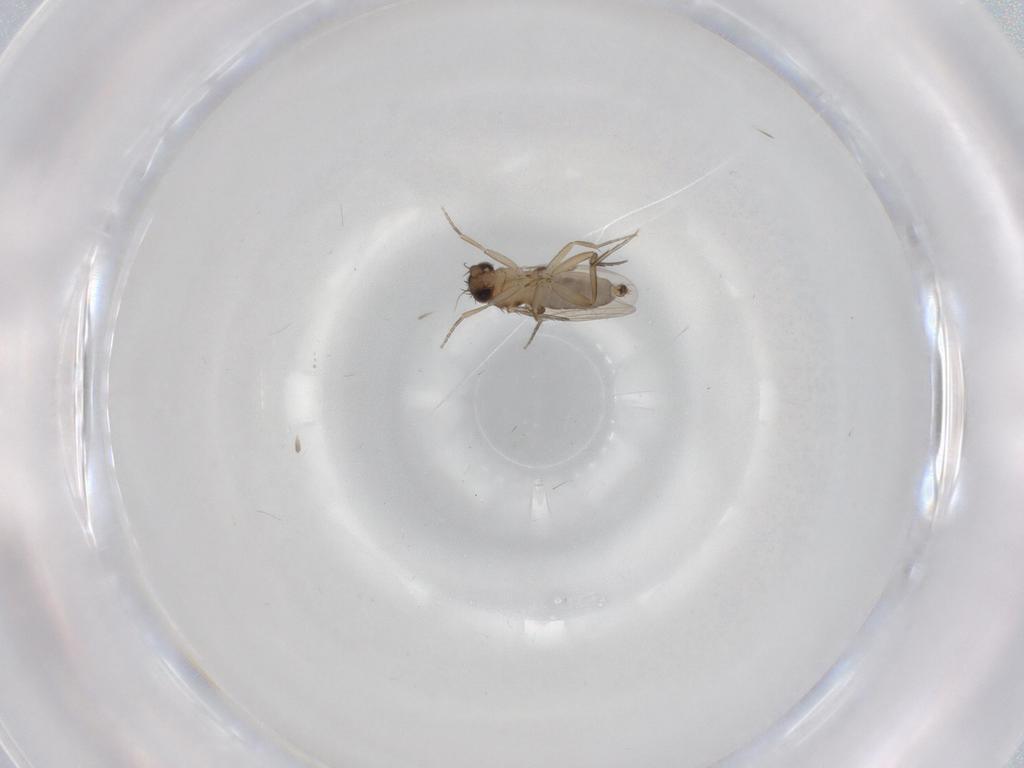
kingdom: Animalia
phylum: Arthropoda
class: Insecta
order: Diptera
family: Phoridae
